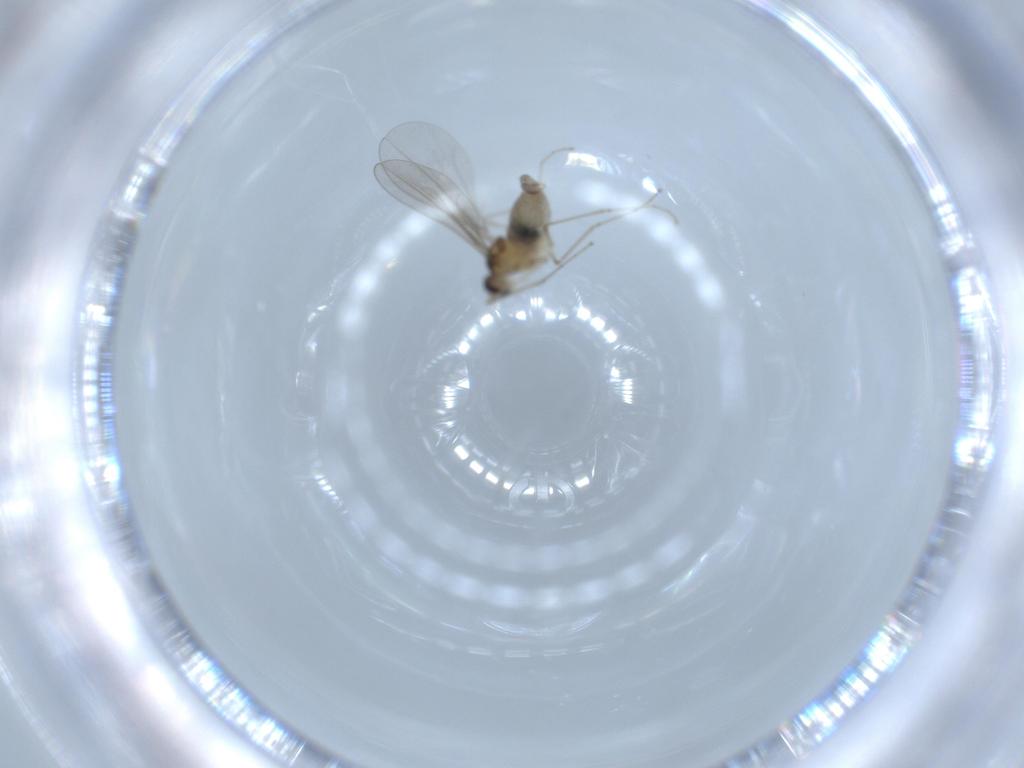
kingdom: Animalia
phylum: Arthropoda
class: Insecta
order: Diptera
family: Cecidomyiidae
